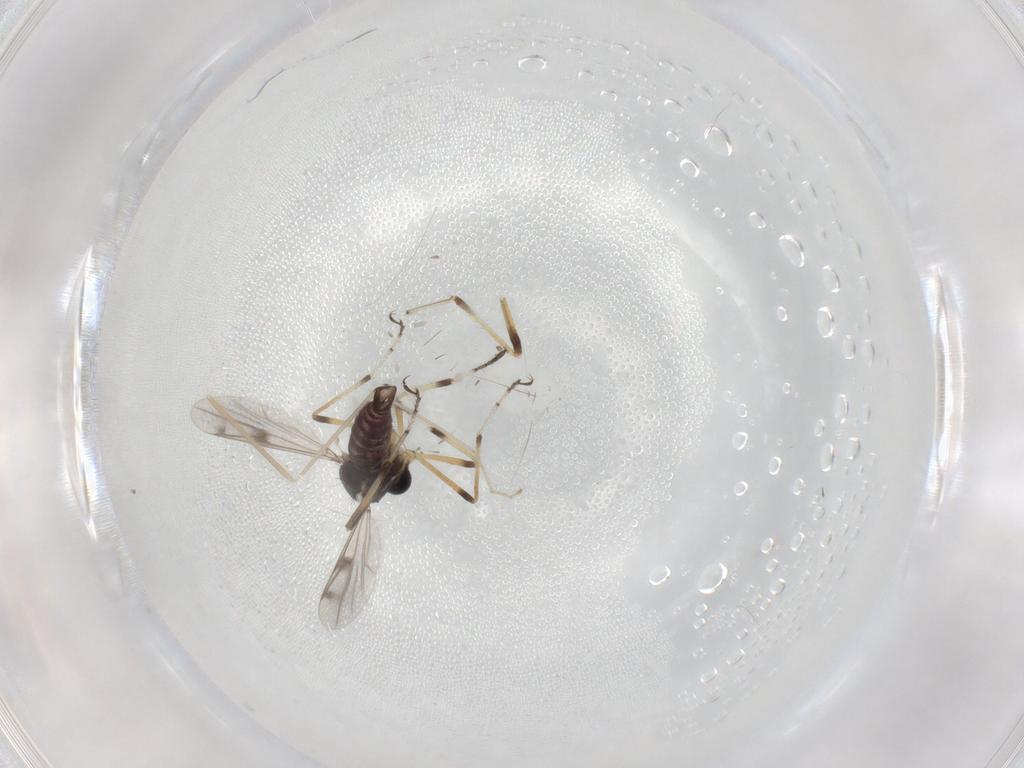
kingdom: Animalia
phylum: Arthropoda
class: Insecta
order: Diptera
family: Ceratopogonidae
